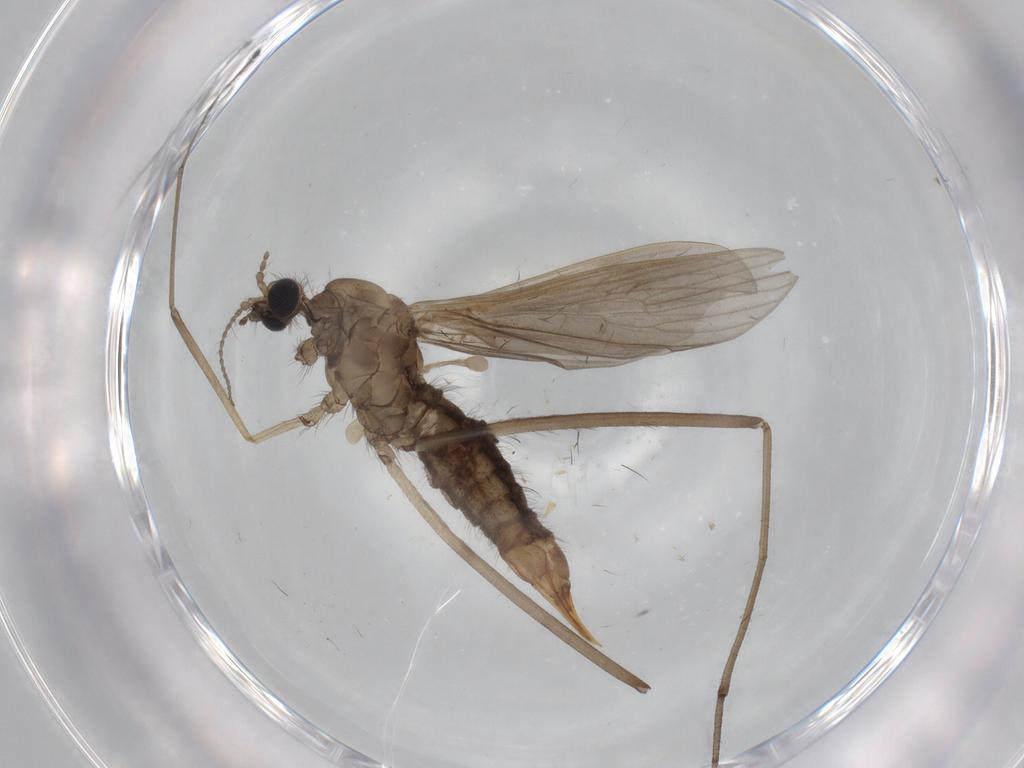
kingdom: Animalia
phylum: Arthropoda
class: Insecta
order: Diptera
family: Limoniidae
